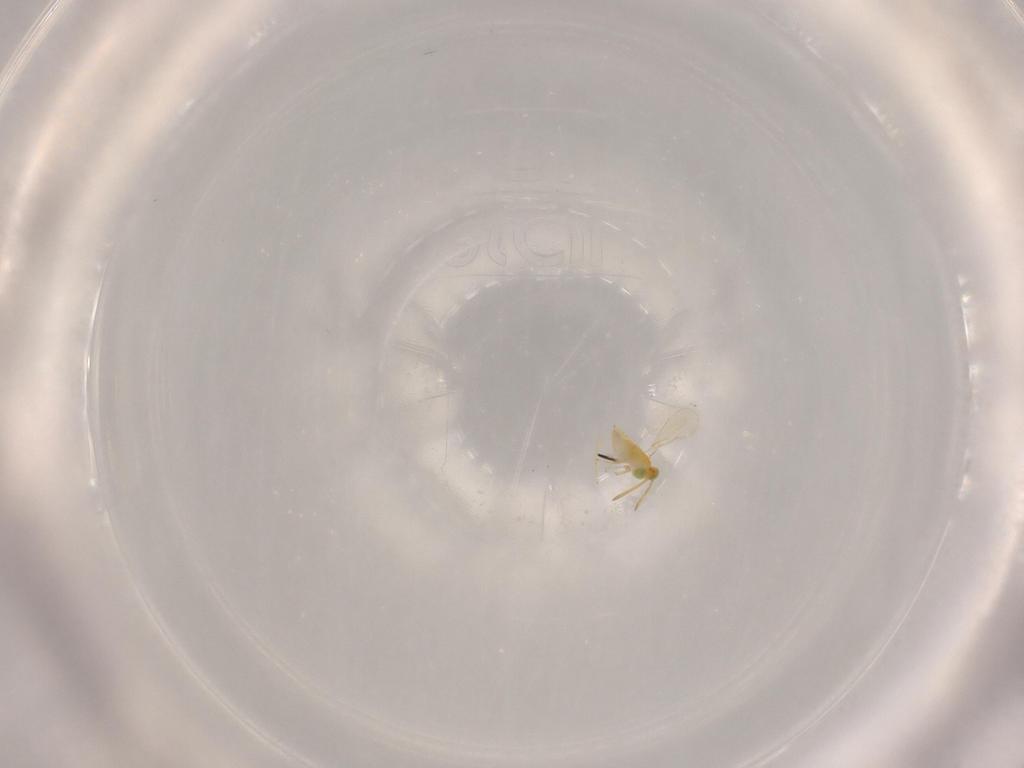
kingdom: Animalia
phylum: Arthropoda
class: Insecta
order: Hymenoptera
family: Aphelinidae
